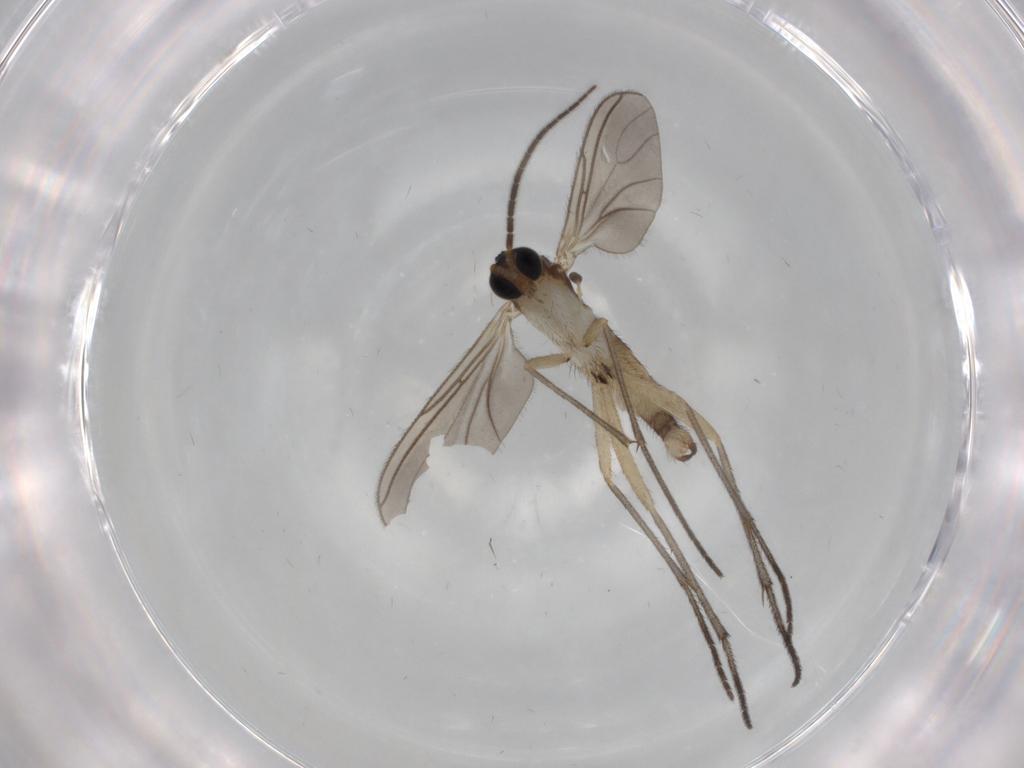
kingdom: Animalia
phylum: Arthropoda
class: Insecta
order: Diptera
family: Sciaridae
